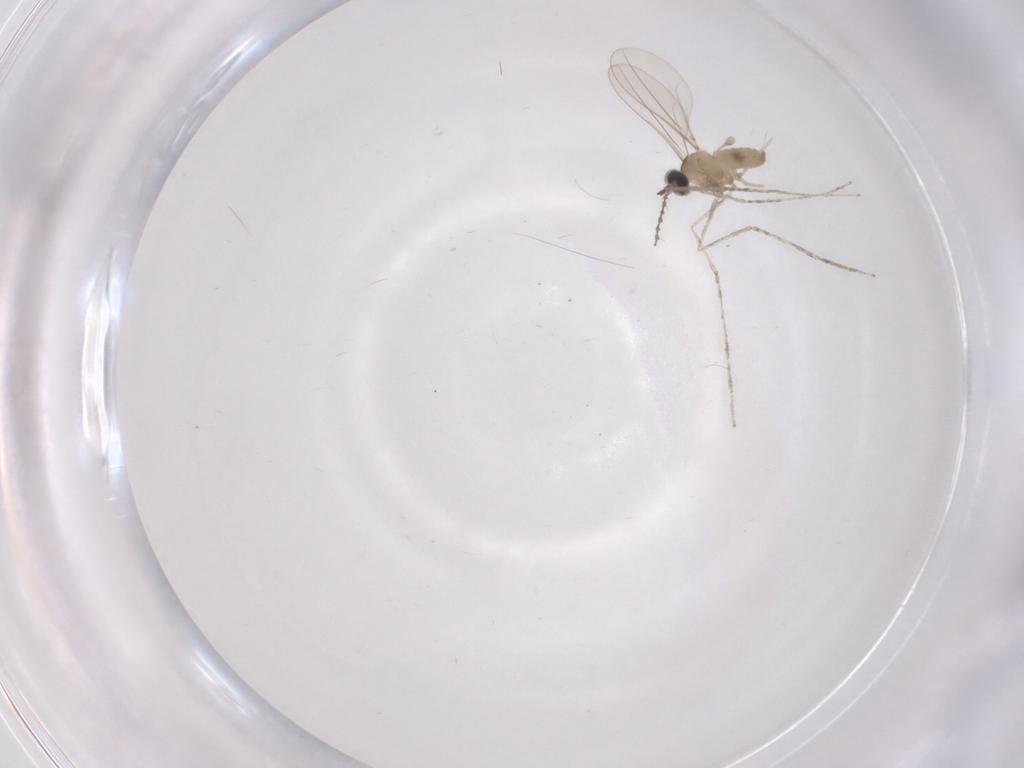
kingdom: Animalia
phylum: Arthropoda
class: Insecta
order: Diptera
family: Cecidomyiidae
